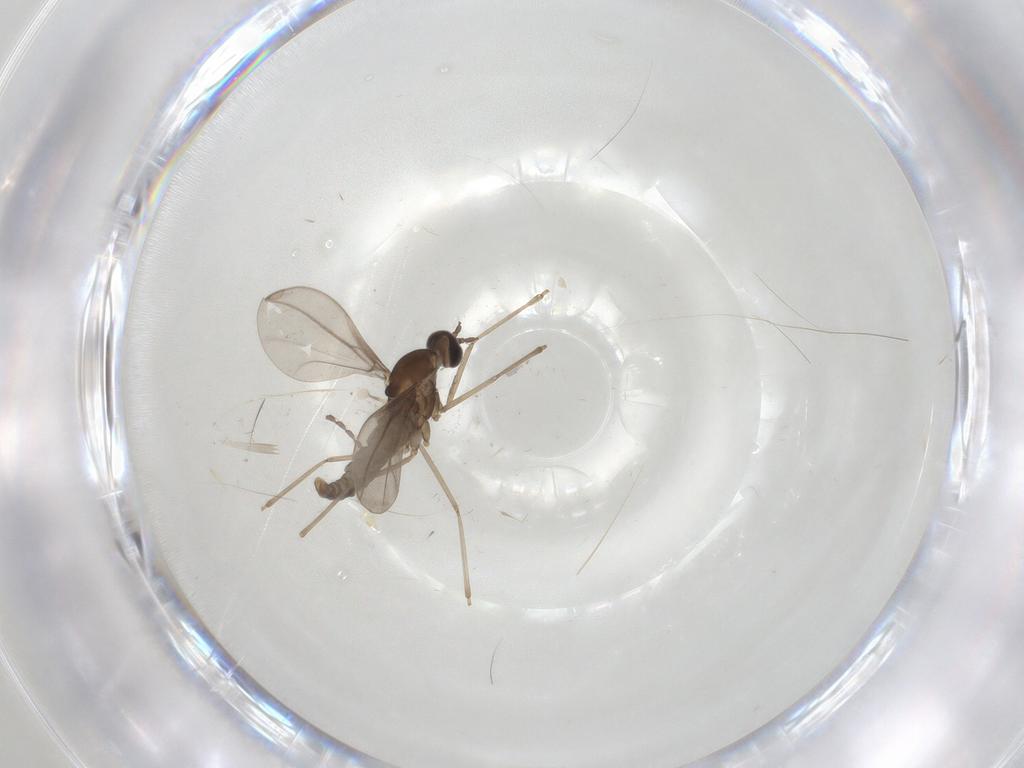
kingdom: Animalia
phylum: Arthropoda
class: Insecta
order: Diptera
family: Cecidomyiidae
